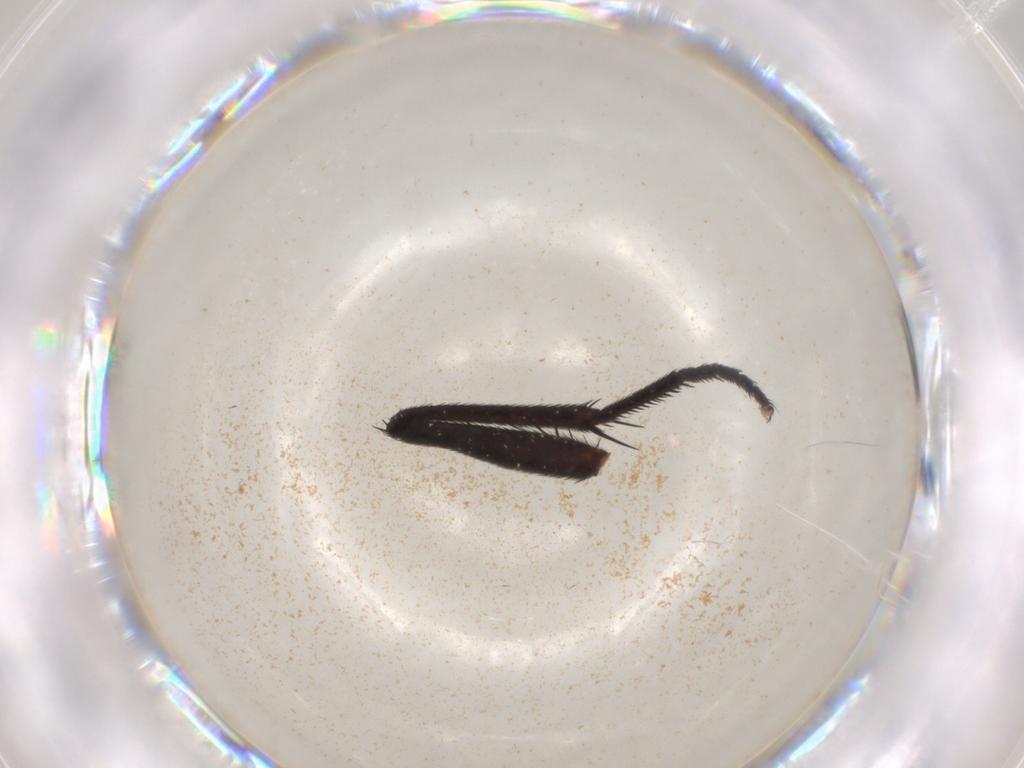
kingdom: Animalia
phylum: Arthropoda
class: Insecta
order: Diptera
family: Muscidae
